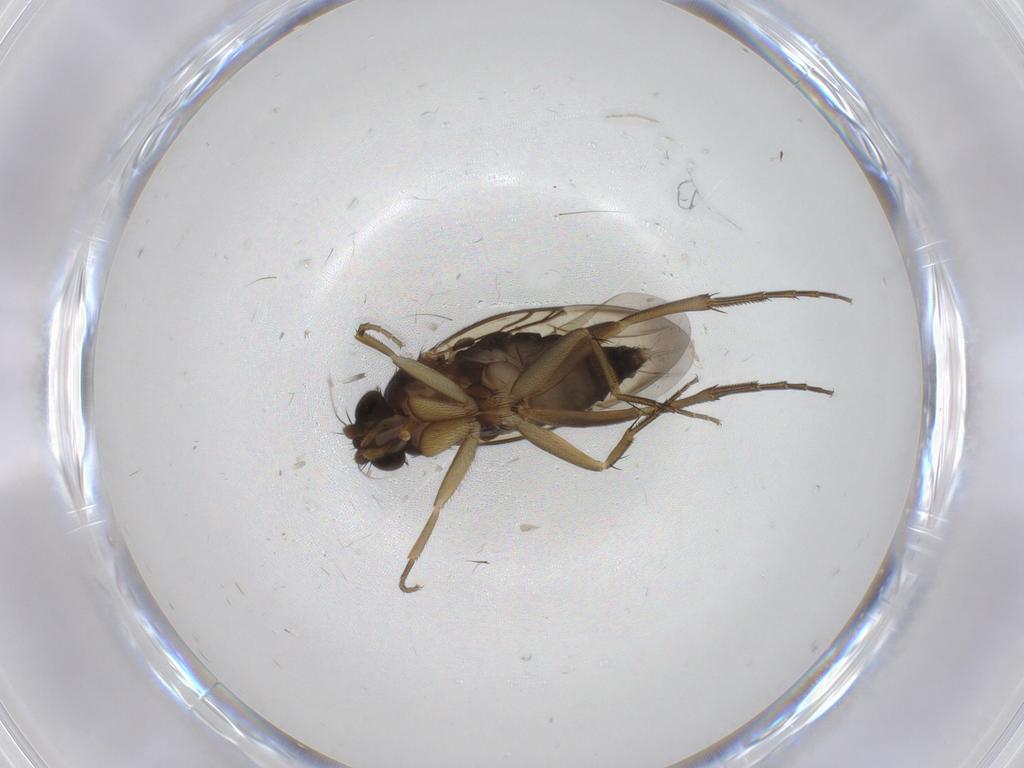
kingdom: Animalia
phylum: Arthropoda
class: Insecta
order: Diptera
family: Phoridae
